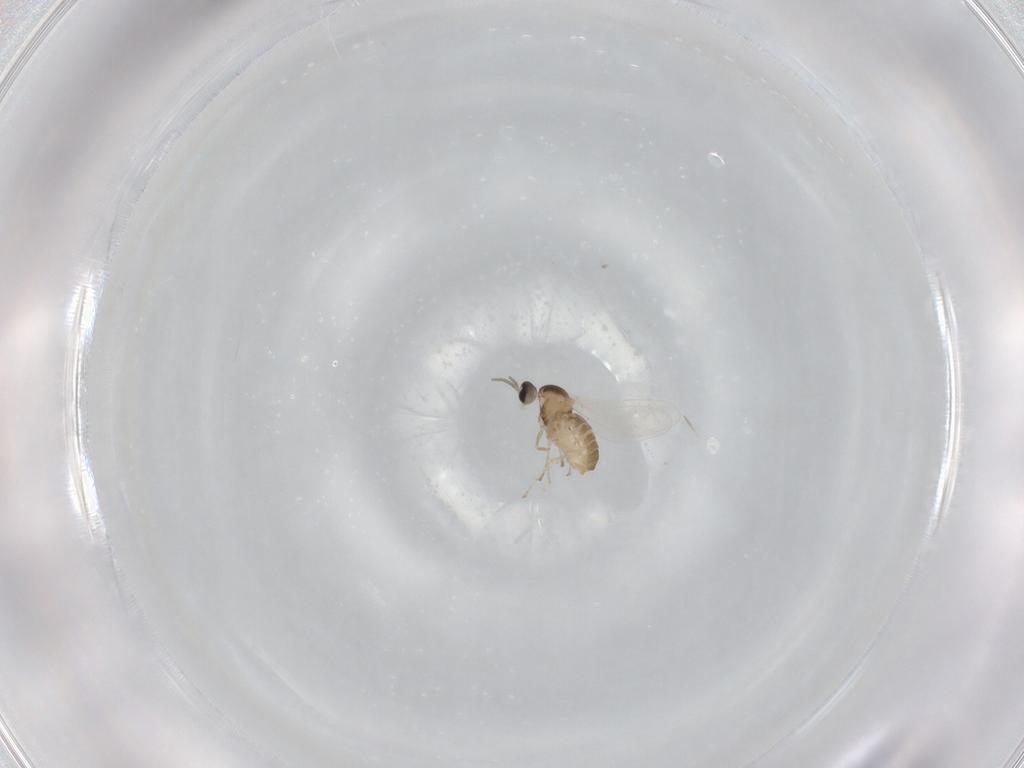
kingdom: Animalia
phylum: Arthropoda
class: Insecta
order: Diptera
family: Cecidomyiidae
